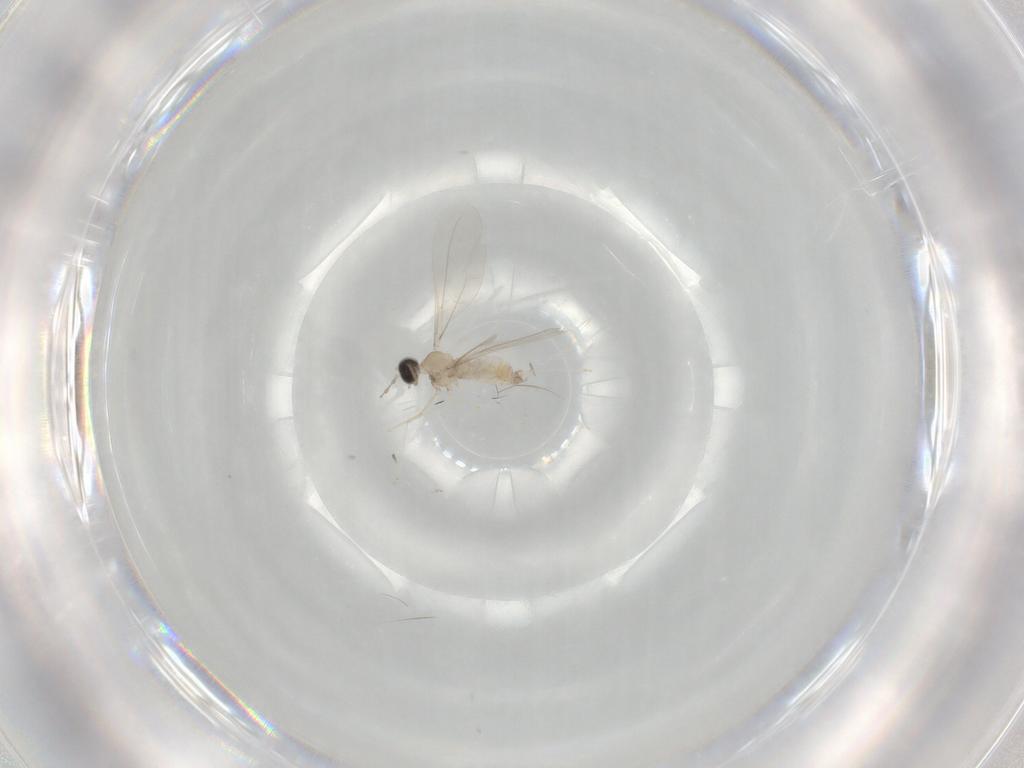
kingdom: Animalia
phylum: Arthropoda
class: Insecta
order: Diptera
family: Cecidomyiidae
